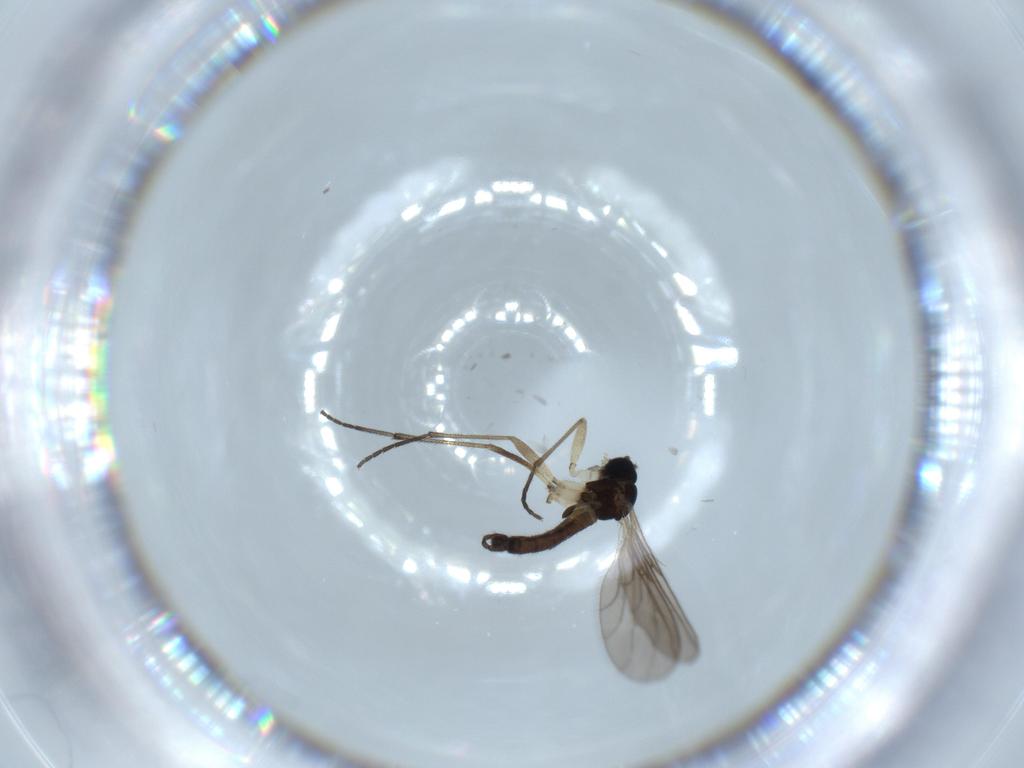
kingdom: Animalia
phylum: Arthropoda
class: Insecta
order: Diptera
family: Sciaridae
